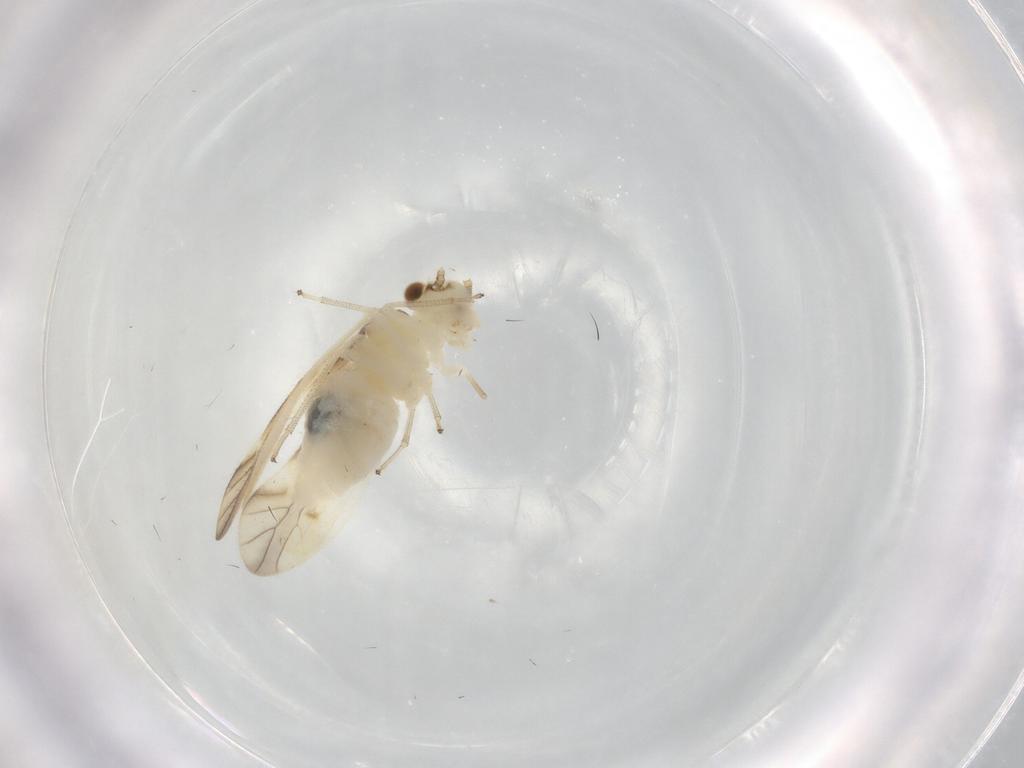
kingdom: Animalia
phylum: Arthropoda
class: Insecta
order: Psocodea
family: Caeciliusidae
